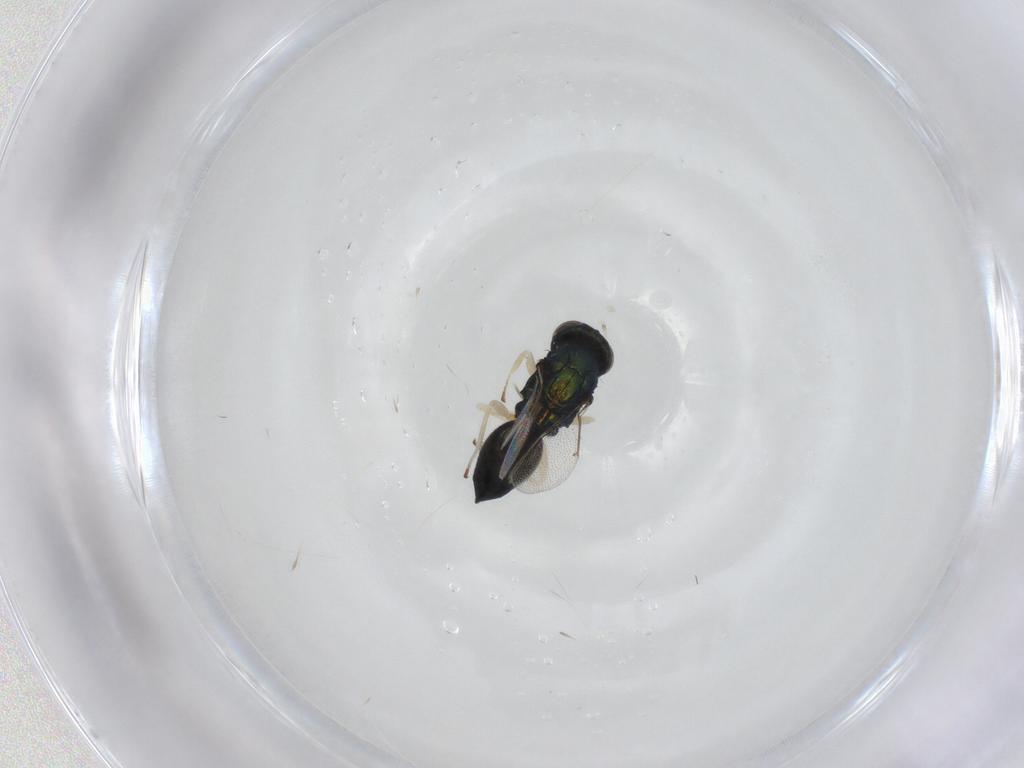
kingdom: Animalia
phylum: Arthropoda
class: Insecta
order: Hymenoptera
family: Eulophidae
